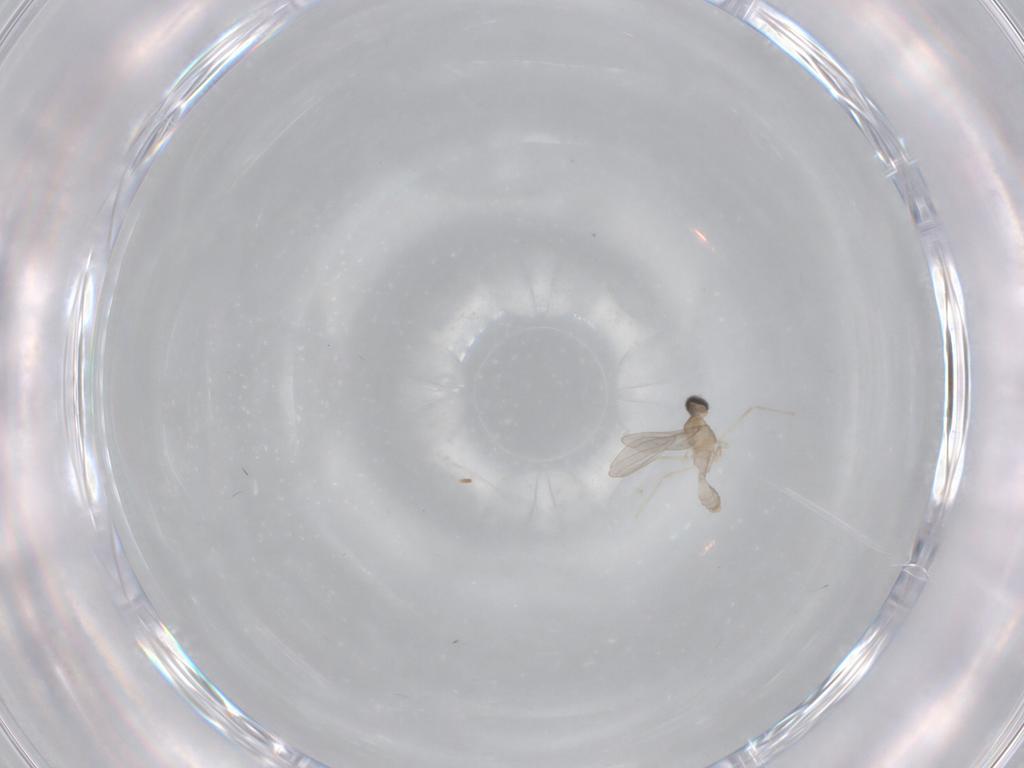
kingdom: Animalia
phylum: Arthropoda
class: Insecta
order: Diptera
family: Cecidomyiidae
